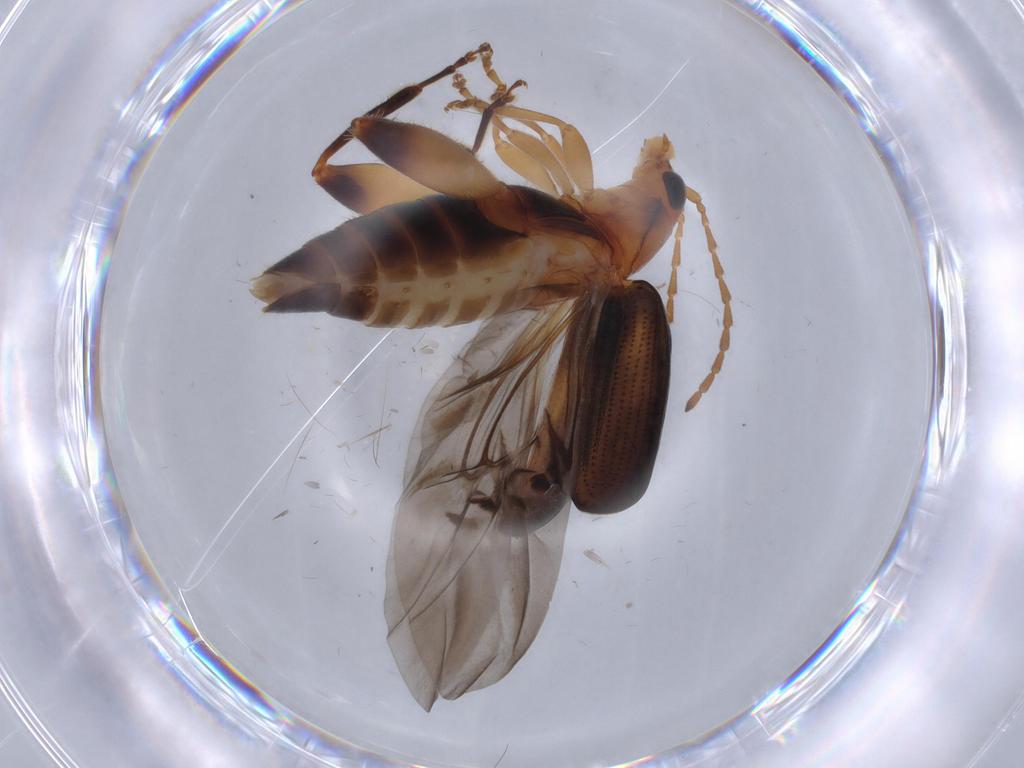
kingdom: Animalia
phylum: Arthropoda
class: Insecta
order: Coleoptera
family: Chrysomelidae
